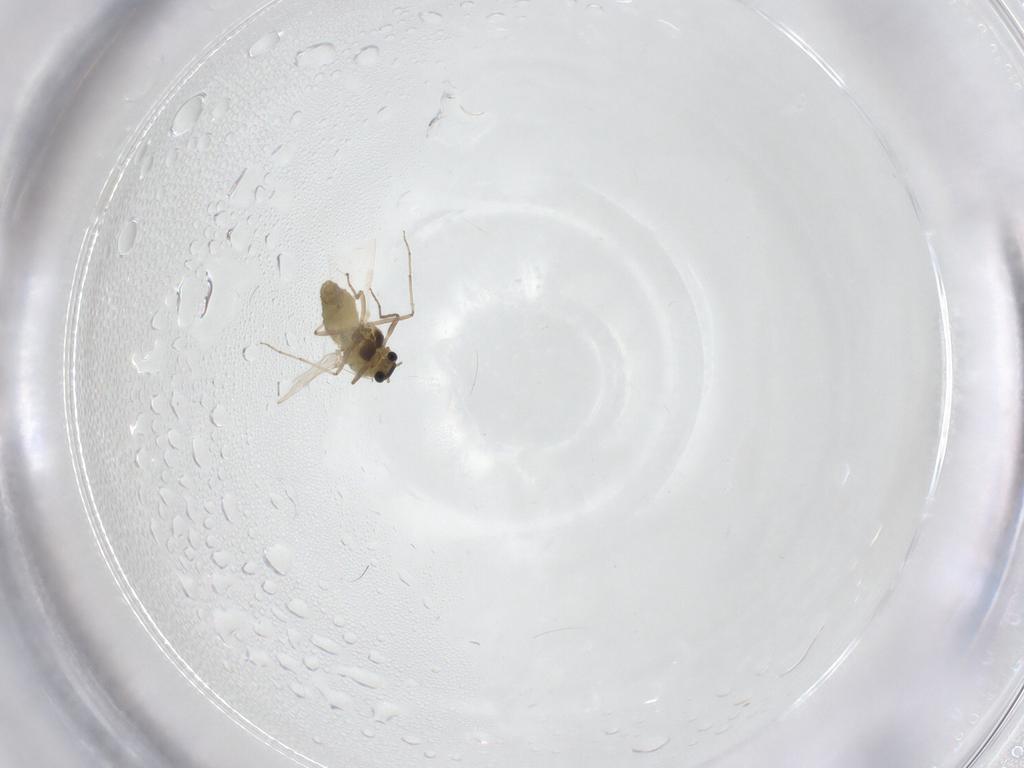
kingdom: Animalia
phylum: Arthropoda
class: Insecta
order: Diptera
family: Chironomidae
